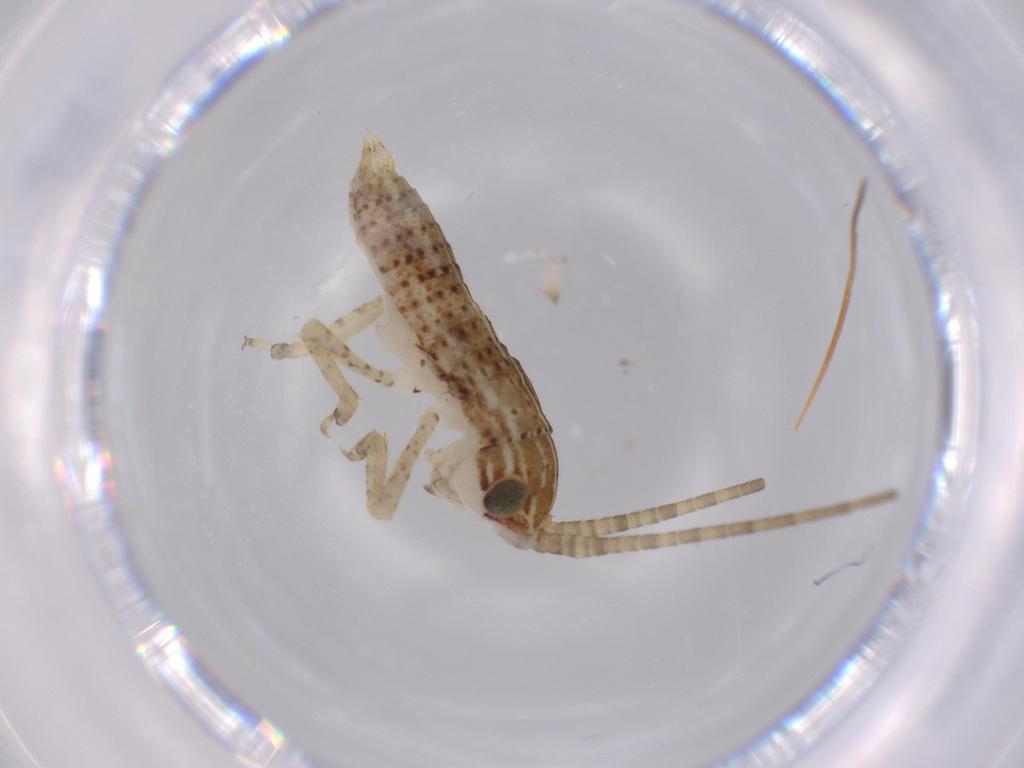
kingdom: Animalia
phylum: Arthropoda
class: Insecta
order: Orthoptera
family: Gryllidae
